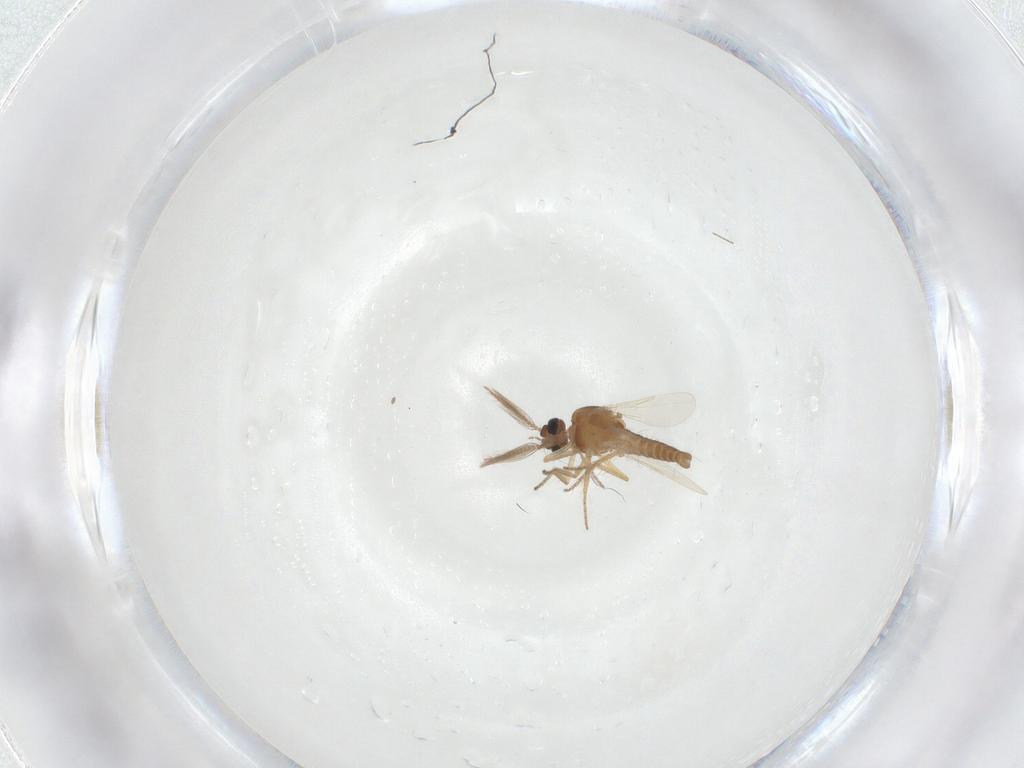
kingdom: Animalia
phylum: Arthropoda
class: Insecta
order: Diptera
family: Ceratopogonidae
